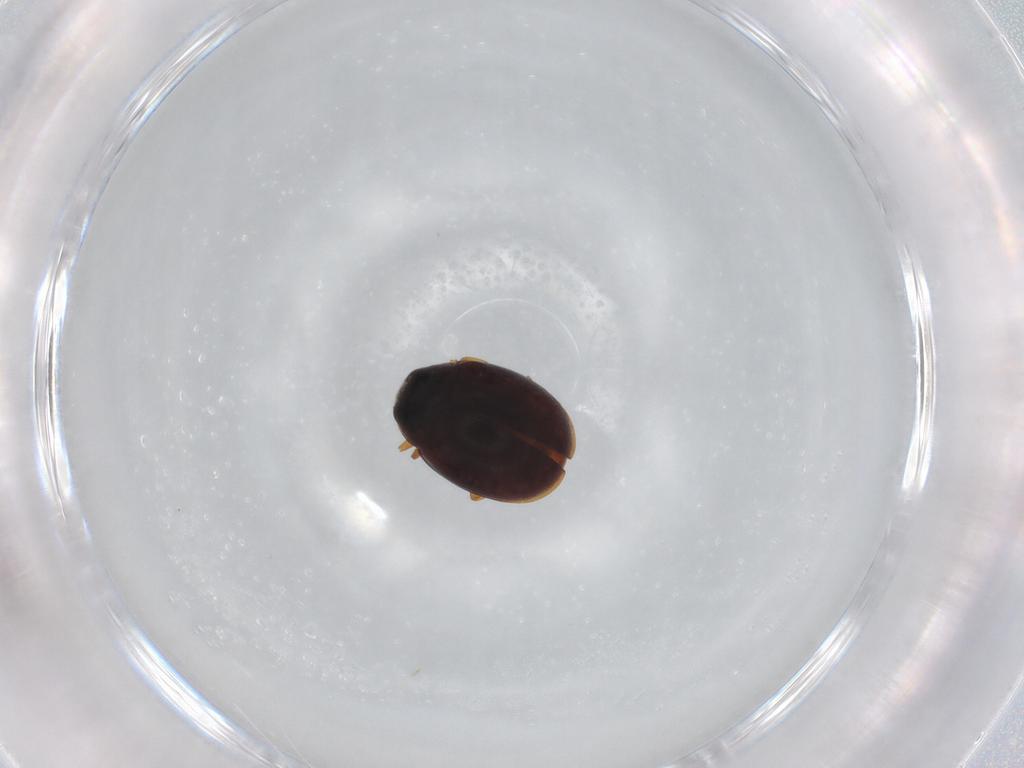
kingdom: Animalia
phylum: Arthropoda
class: Insecta
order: Coleoptera
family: Coccinellidae
